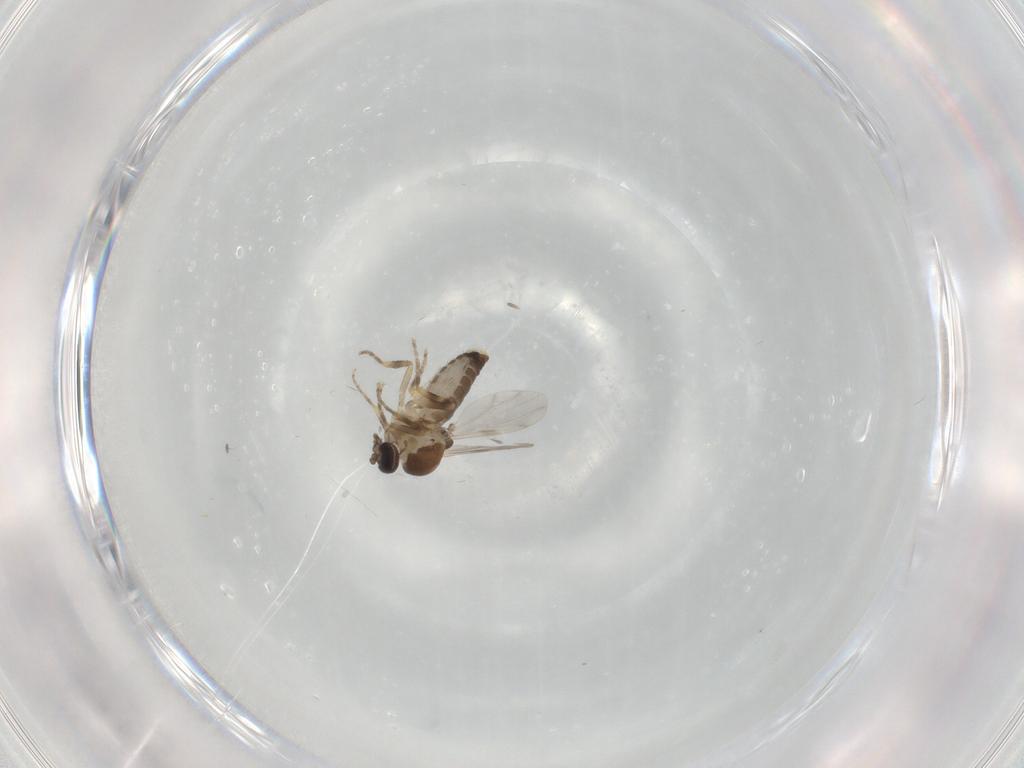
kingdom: Animalia
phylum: Arthropoda
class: Insecta
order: Diptera
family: Ceratopogonidae
